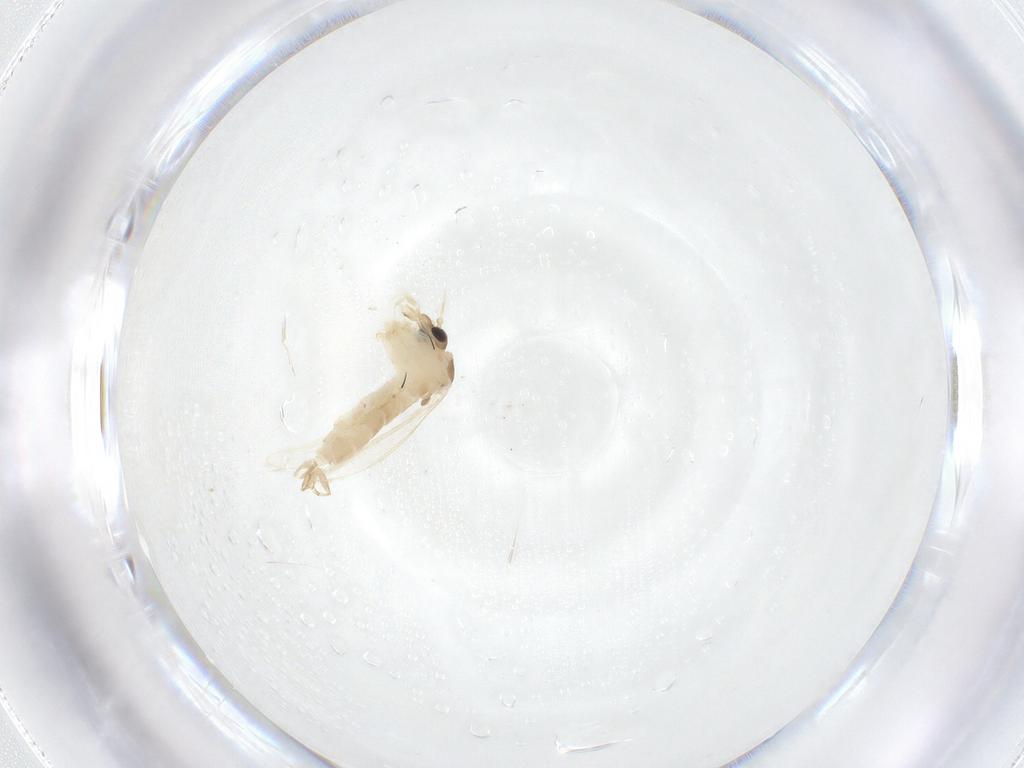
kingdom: Animalia
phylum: Arthropoda
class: Insecta
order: Diptera
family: Psychodidae
